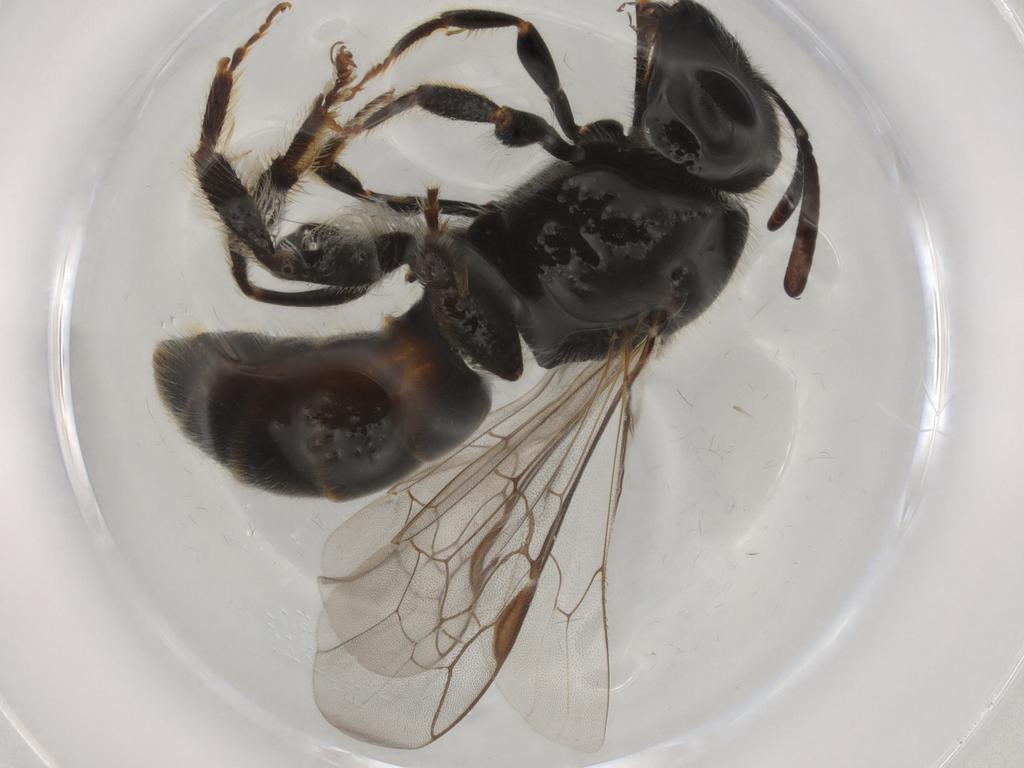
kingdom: Animalia
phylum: Arthropoda
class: Insecta
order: Hymenoptera
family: Halictidae
